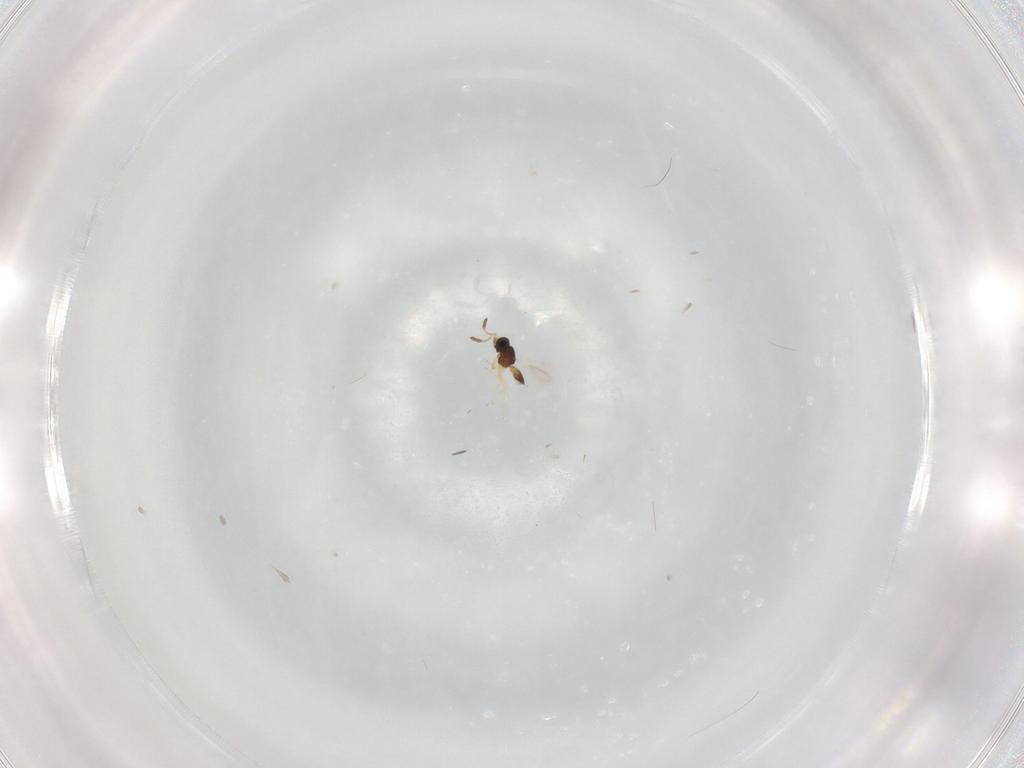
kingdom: Animalia
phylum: Arthropoda
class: Insecta
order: Hymenoptera
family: Scelionidae
